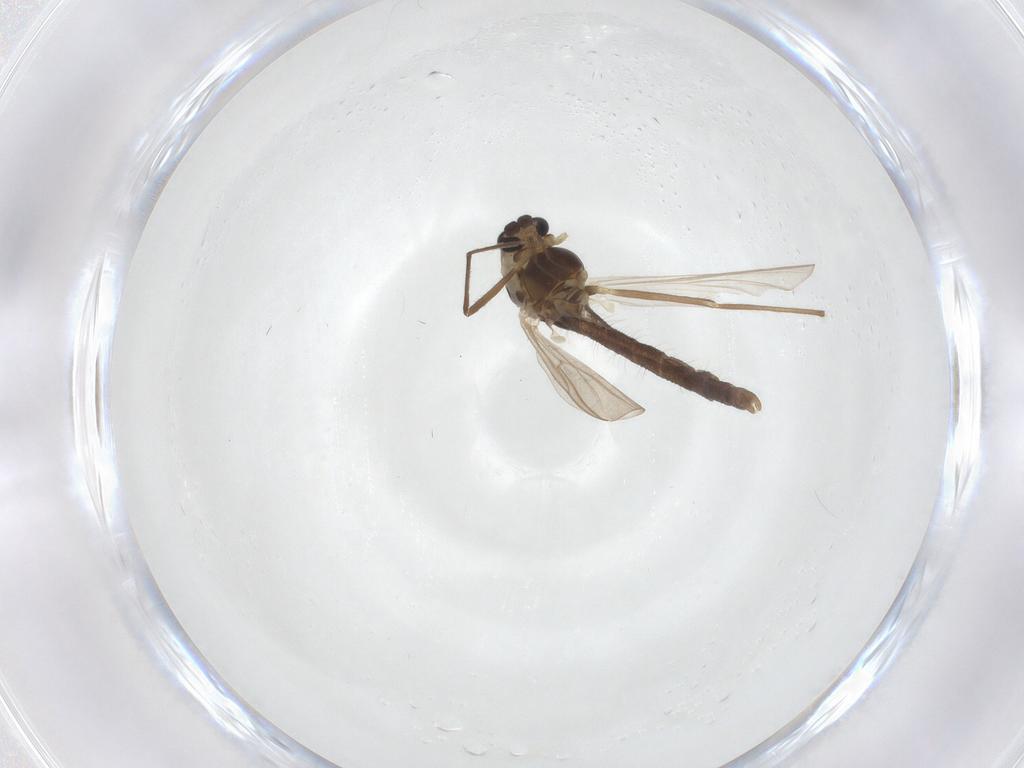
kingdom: Animalia
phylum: Arthropoda
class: Insecta
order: Diptera
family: Chironomidae
